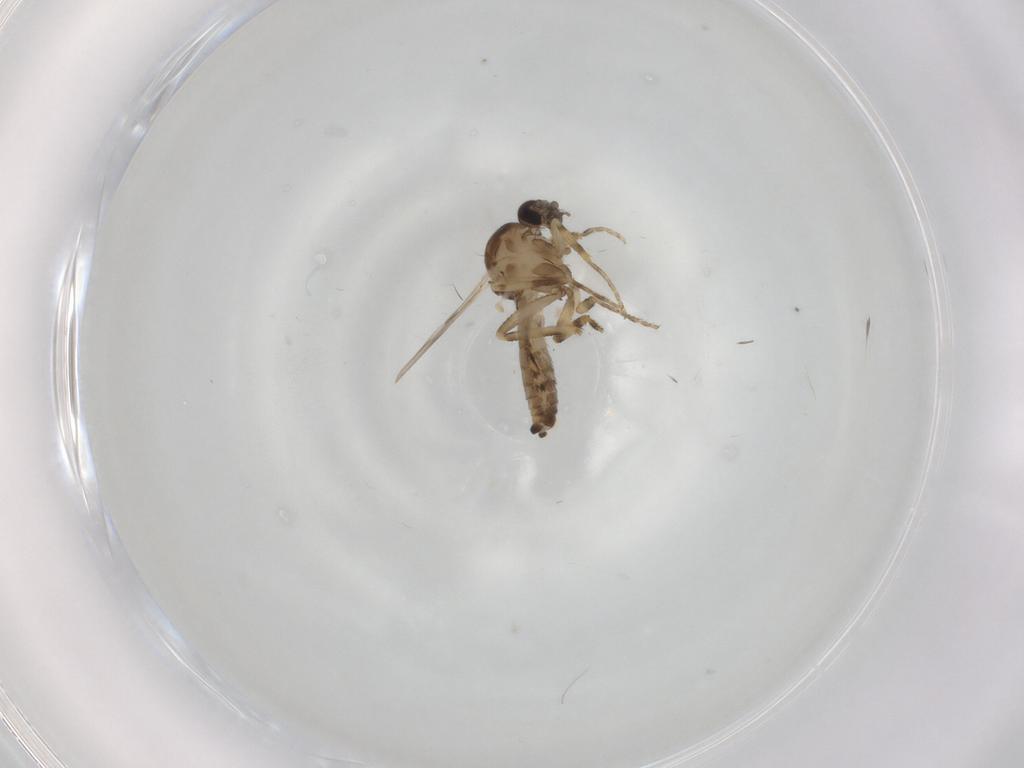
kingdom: Animalia
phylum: Arthropoda
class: Insecta
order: Diptera
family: Ceratopogonidae
